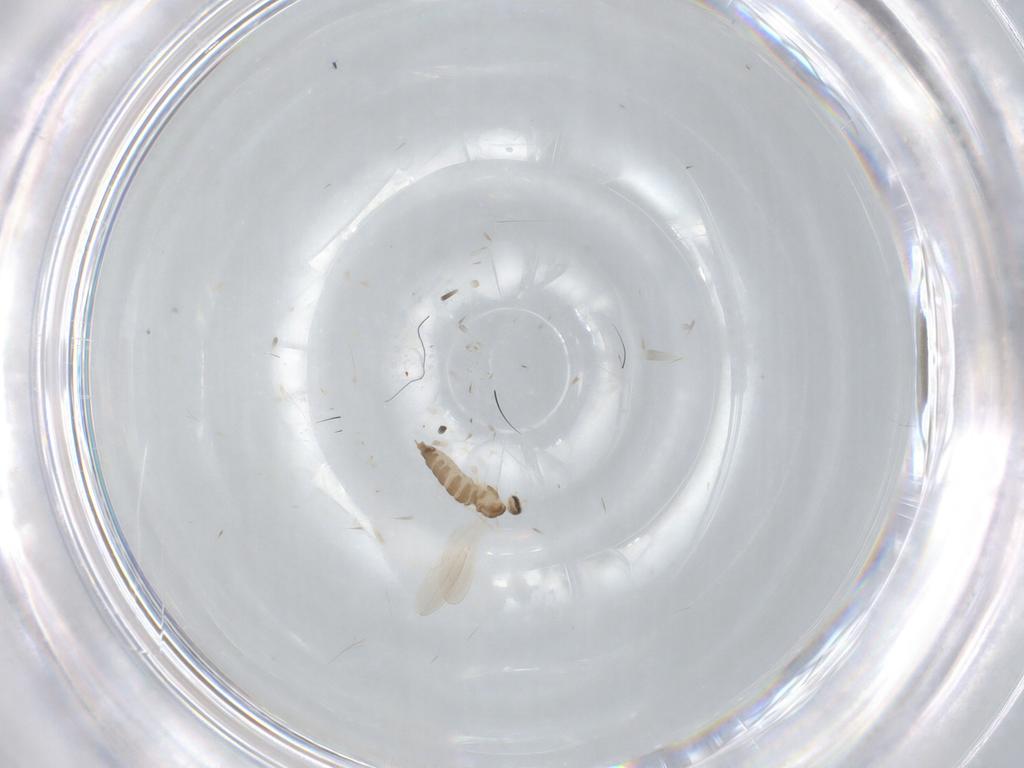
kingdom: Animalia
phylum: Arthropoda
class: Insecta
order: Diptera
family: Cecidomyiidae
